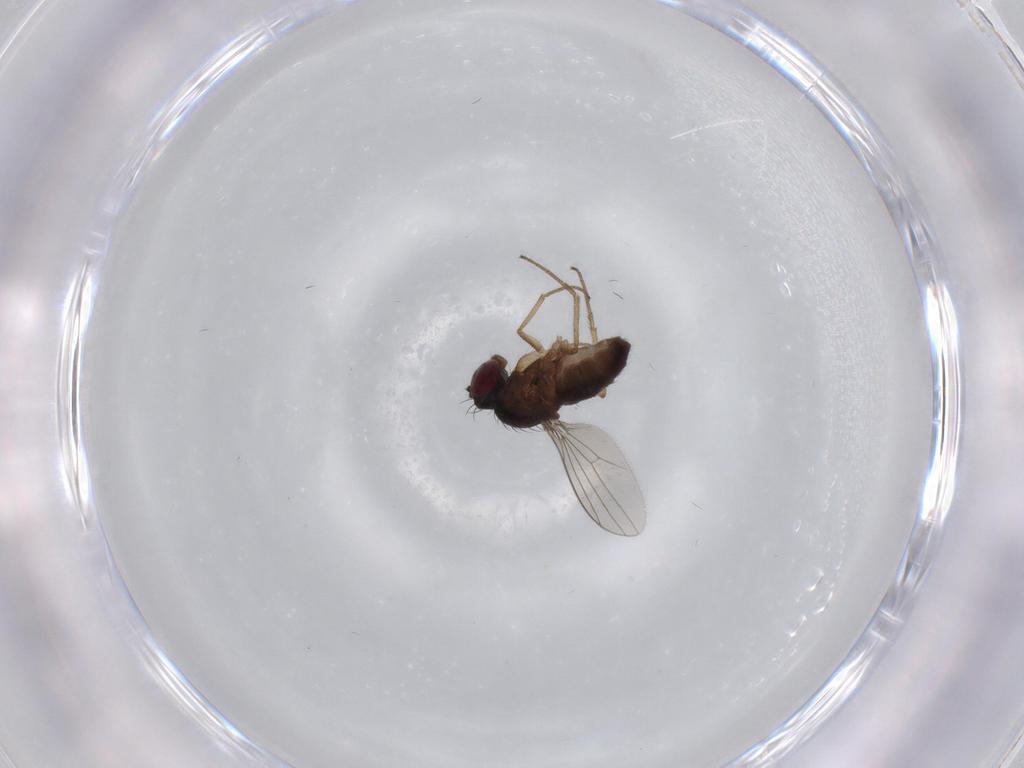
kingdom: Animalia
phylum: Arthropoda
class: Insecta
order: Diptera
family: Dolichopodidae
